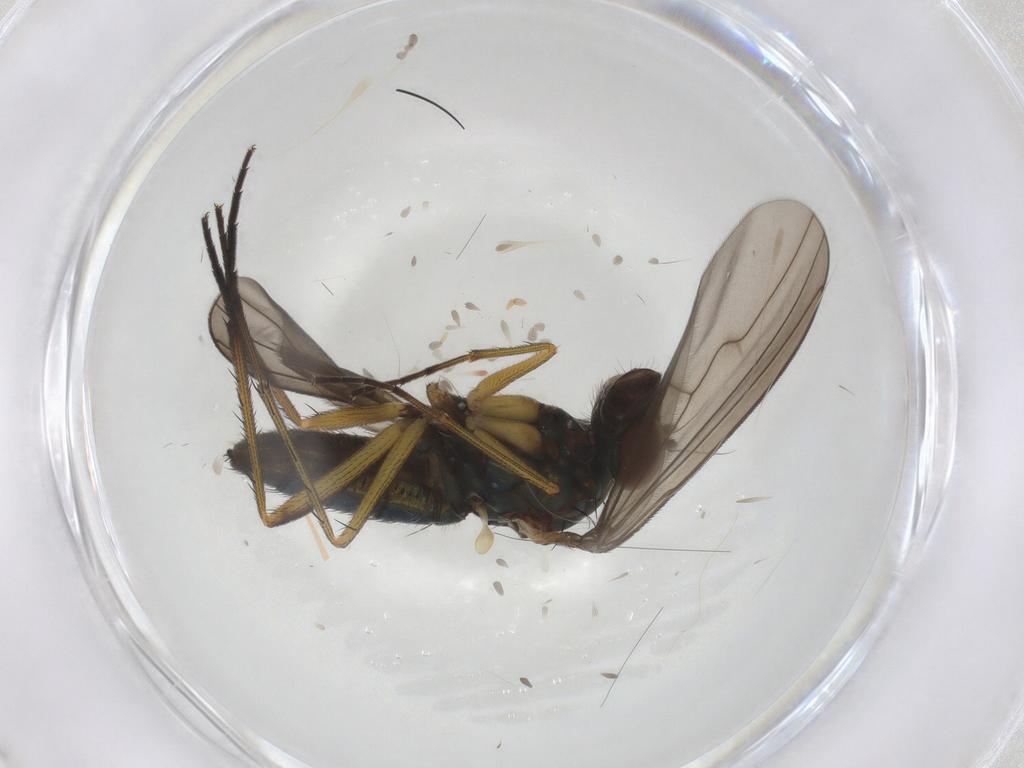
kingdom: Animalia
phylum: Arthropoda
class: Insecta
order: Diptera
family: Dolichopodidae
